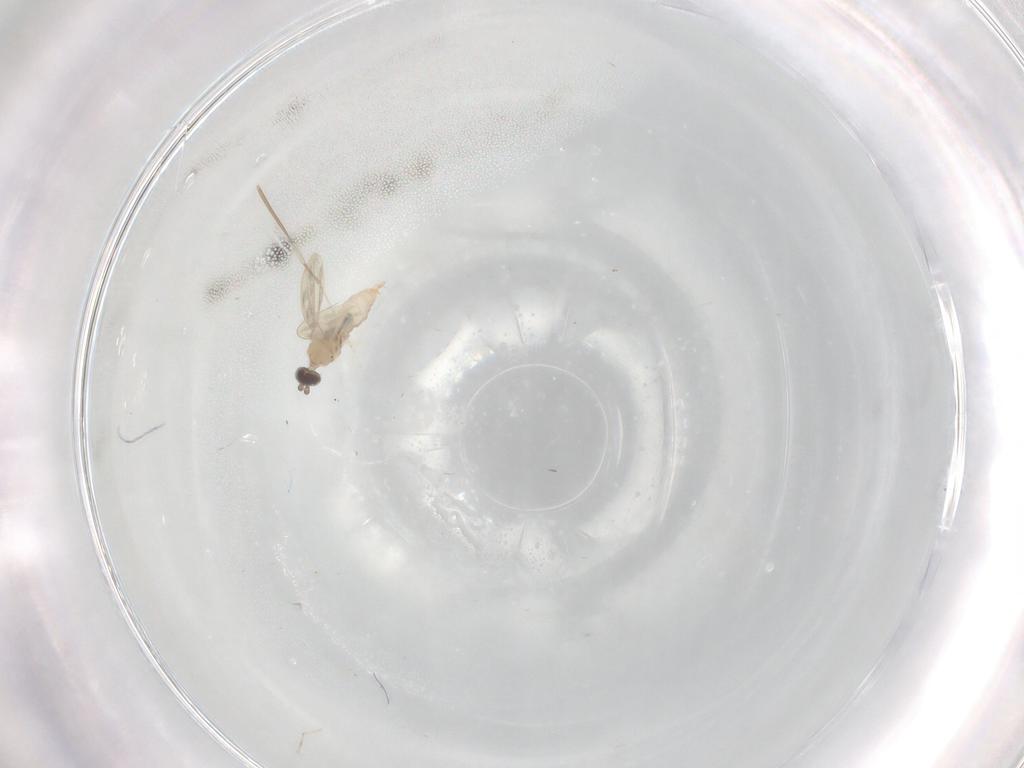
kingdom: Animalia
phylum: Arthropoda
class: Insecta
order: Diptera
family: Cecidomyiidae
